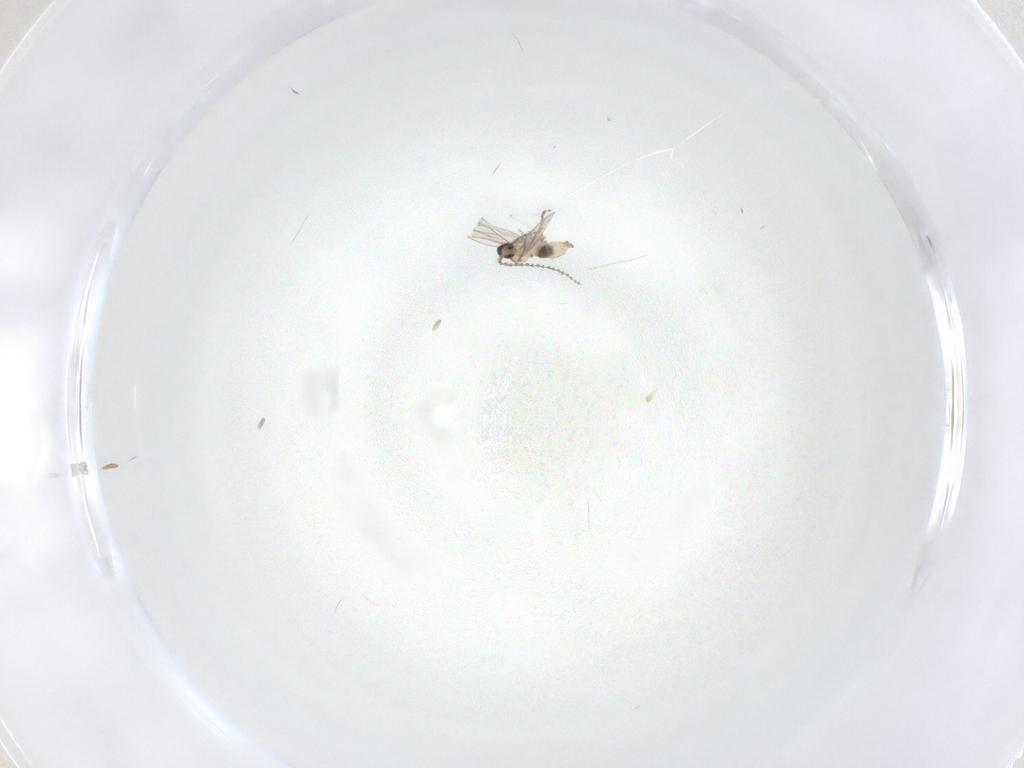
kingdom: Animalia
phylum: Arthropoda
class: Insecta
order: Diptera
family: Cecidomyiidae
